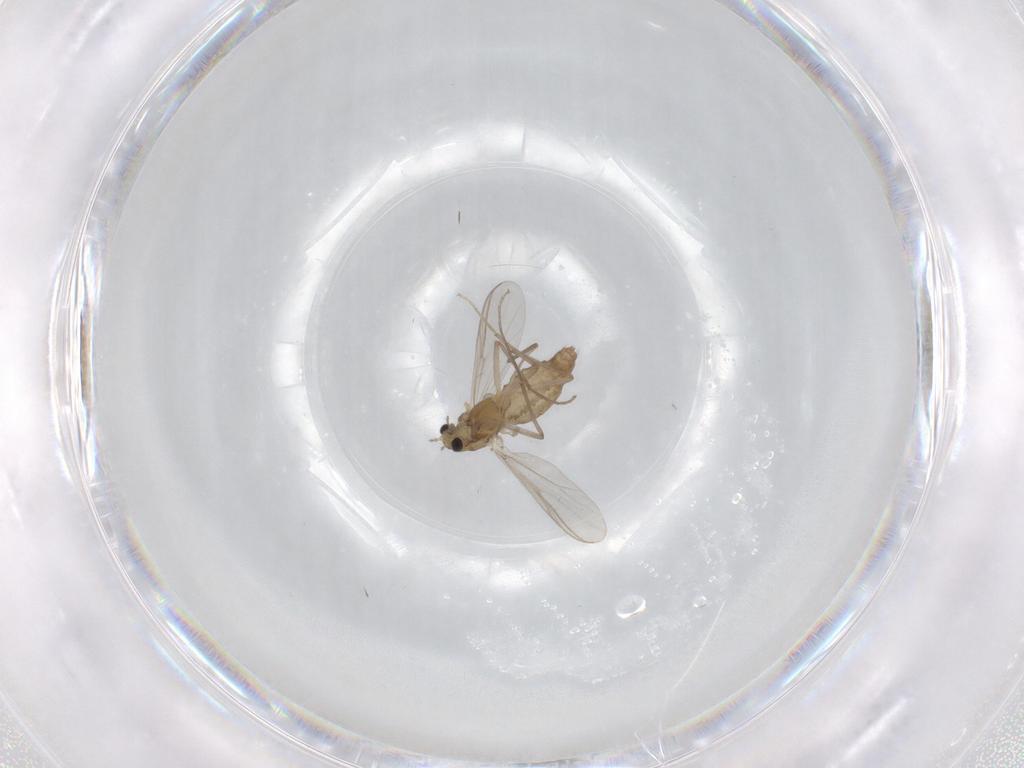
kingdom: Animalia
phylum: Arthropoda
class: Insecta
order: Diptera
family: Chironomidae
